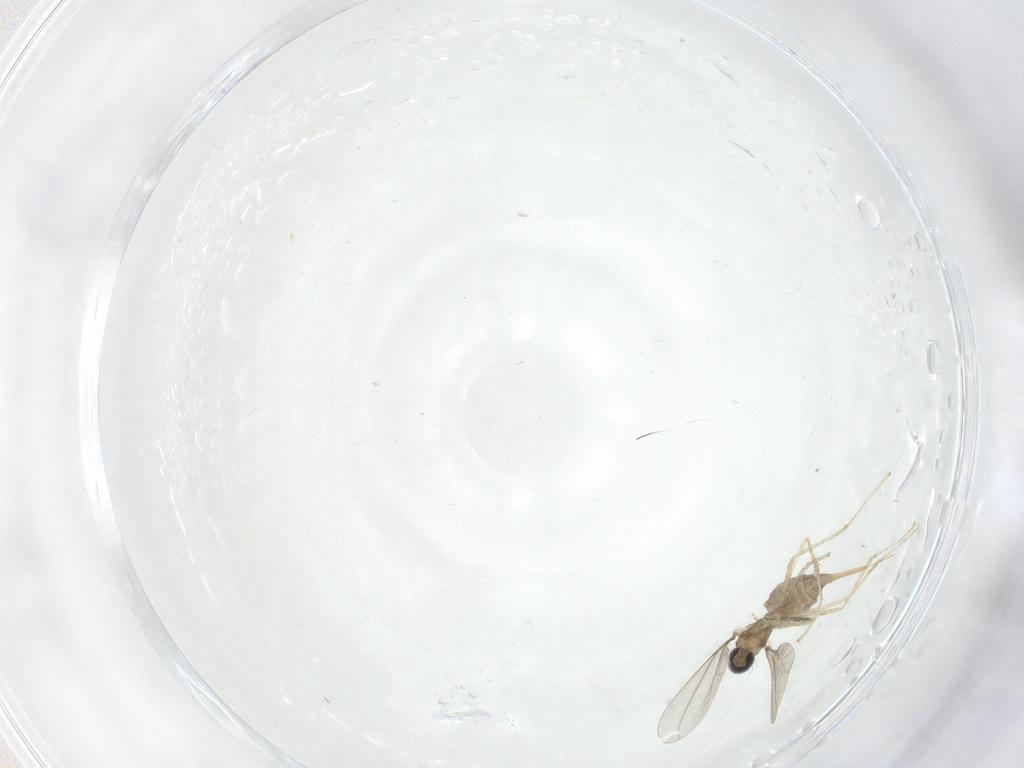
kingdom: Animalia
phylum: Arthropoda
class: Insecta
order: Diptera
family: Cecidomyiidae
